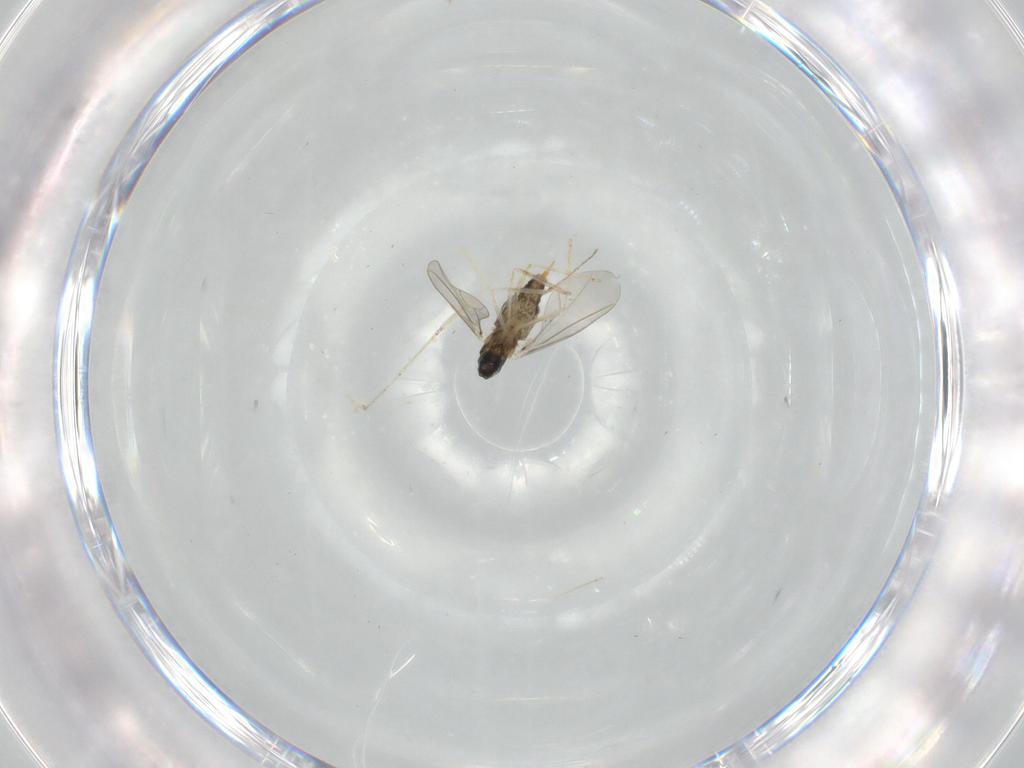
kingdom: Animalia
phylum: Arthropoda
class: Insecta
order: Diptera
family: Cecidomyiidae
